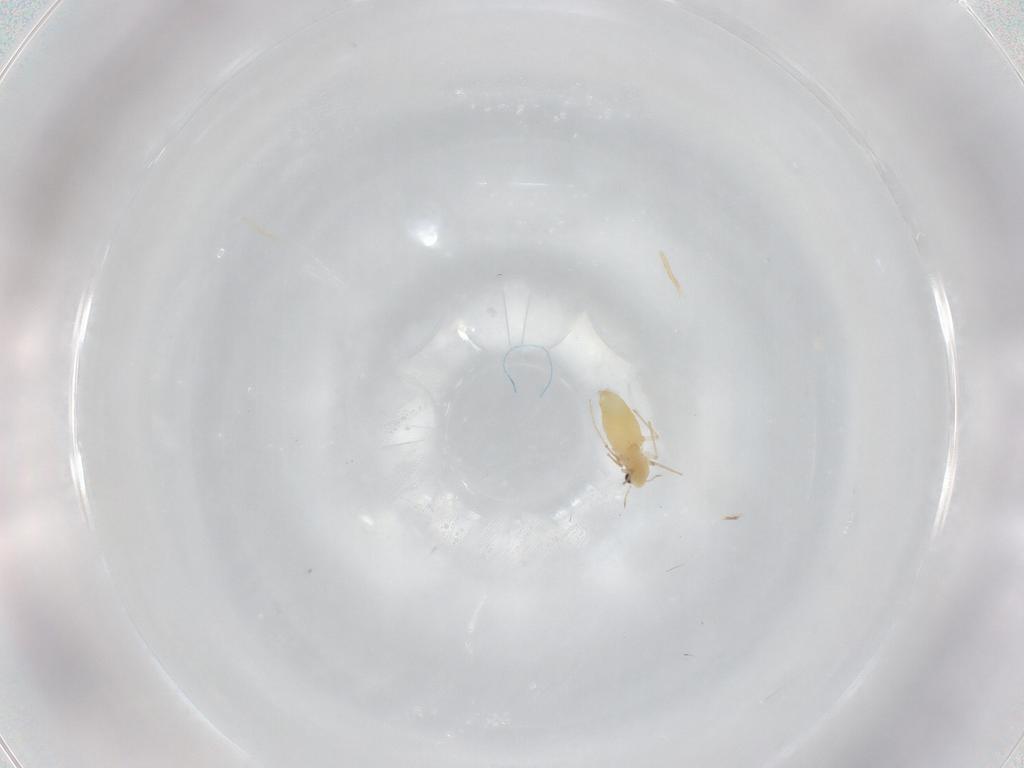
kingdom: Animalia
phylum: Arthropoda
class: Insecta
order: Diptera
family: Chironomidae
